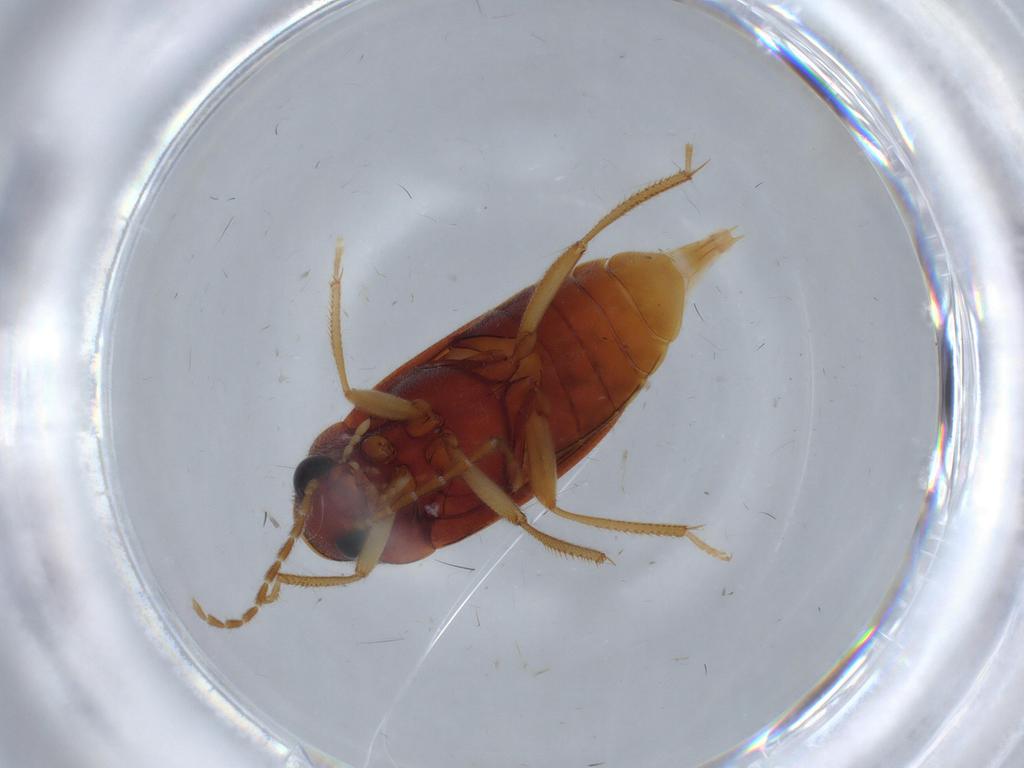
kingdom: Animalia
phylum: Arthropoda
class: Insecta
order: Coleoptera
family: Ptilodactylidae
